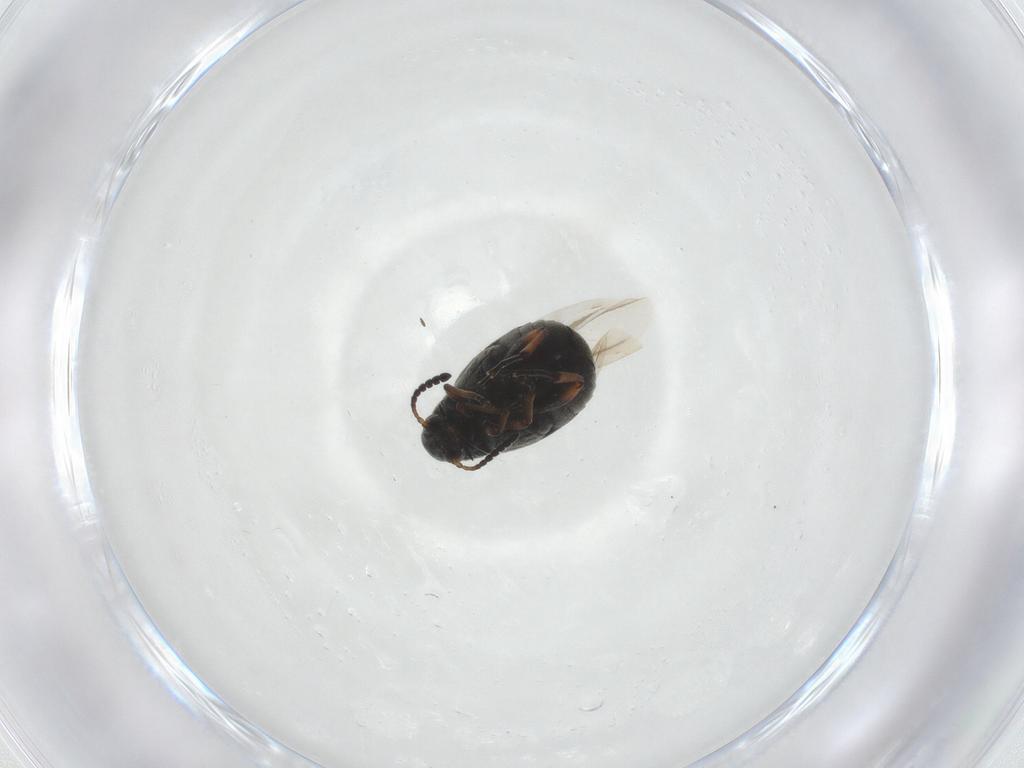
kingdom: Animalia
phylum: Arthropoda
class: Insecta
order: Coleoptera
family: Chrysomelidae
